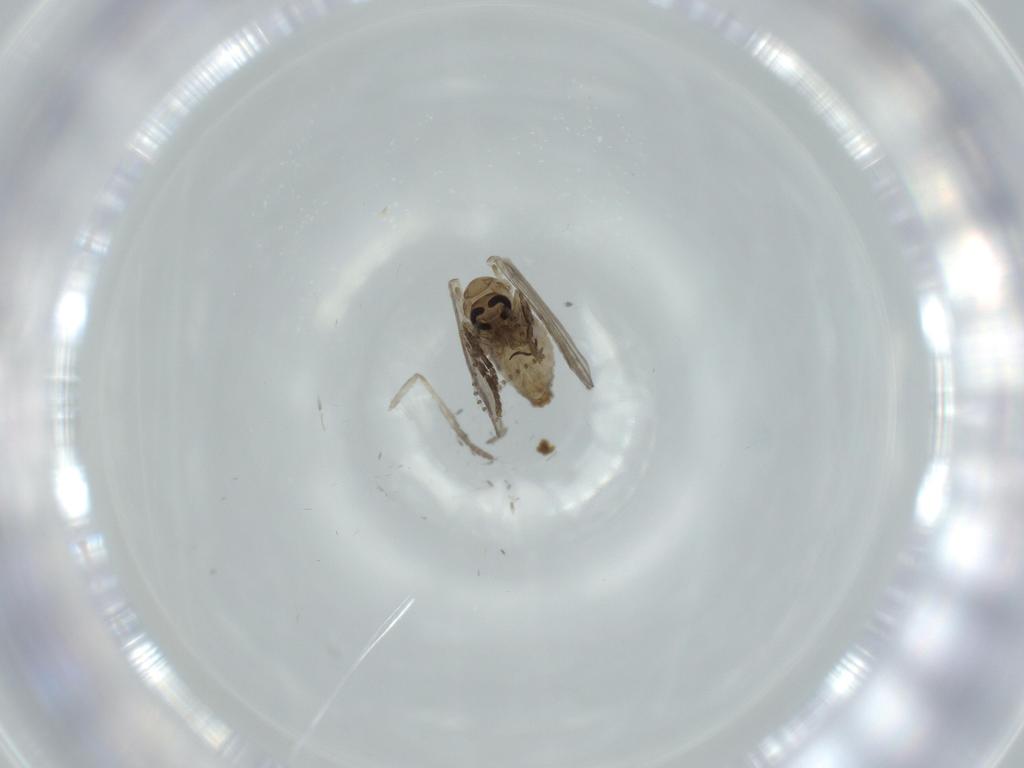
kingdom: Animalia
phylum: Arthropoda
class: Insecta
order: Diptera
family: Psychodidae
